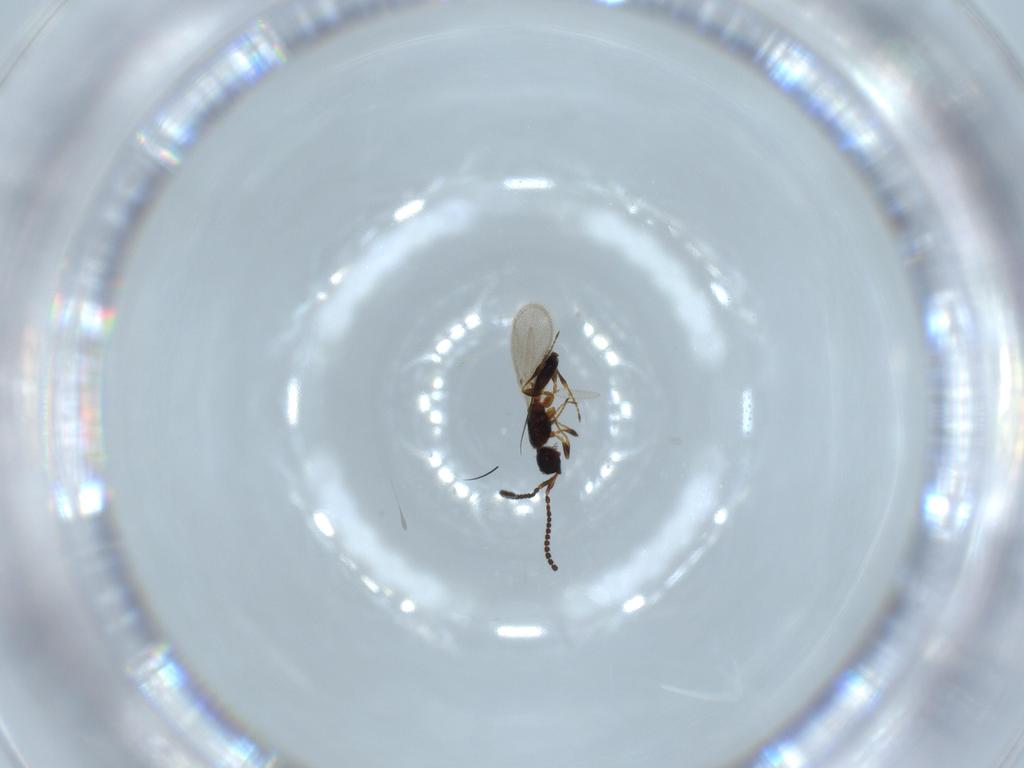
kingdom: Animalia
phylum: Arthropoda
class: Insecta
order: Hymenoptera
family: Diapriidae
